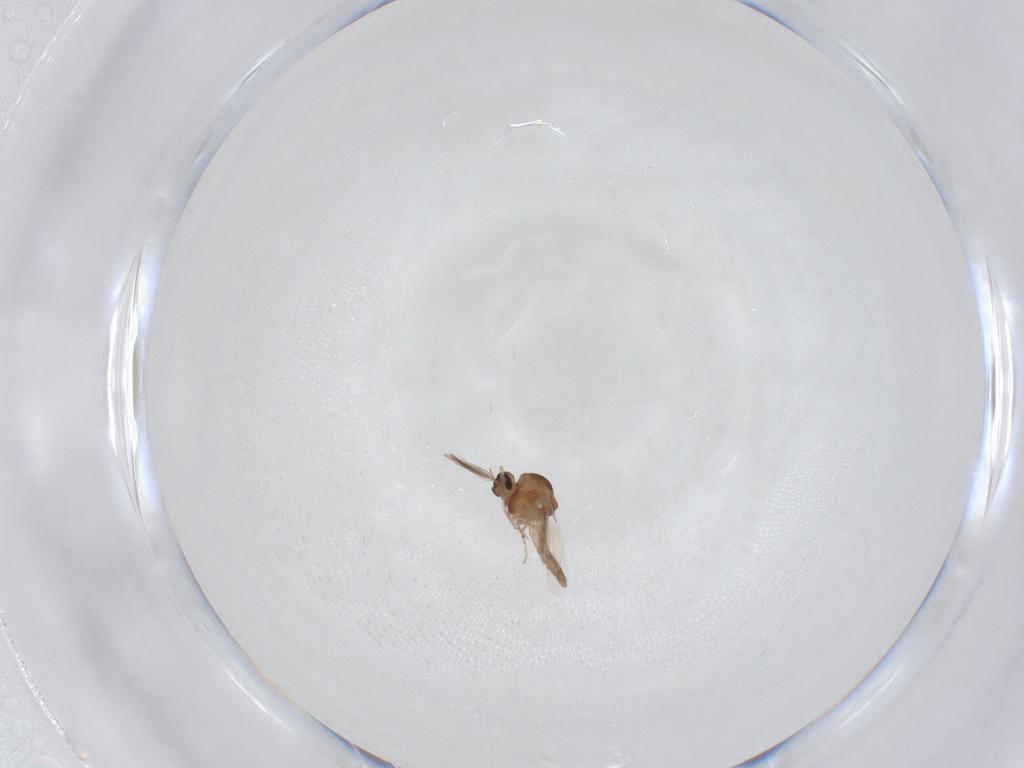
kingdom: Animalia
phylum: Arthropoda
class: Insecta
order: Diptera
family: Ceratopogonidae
